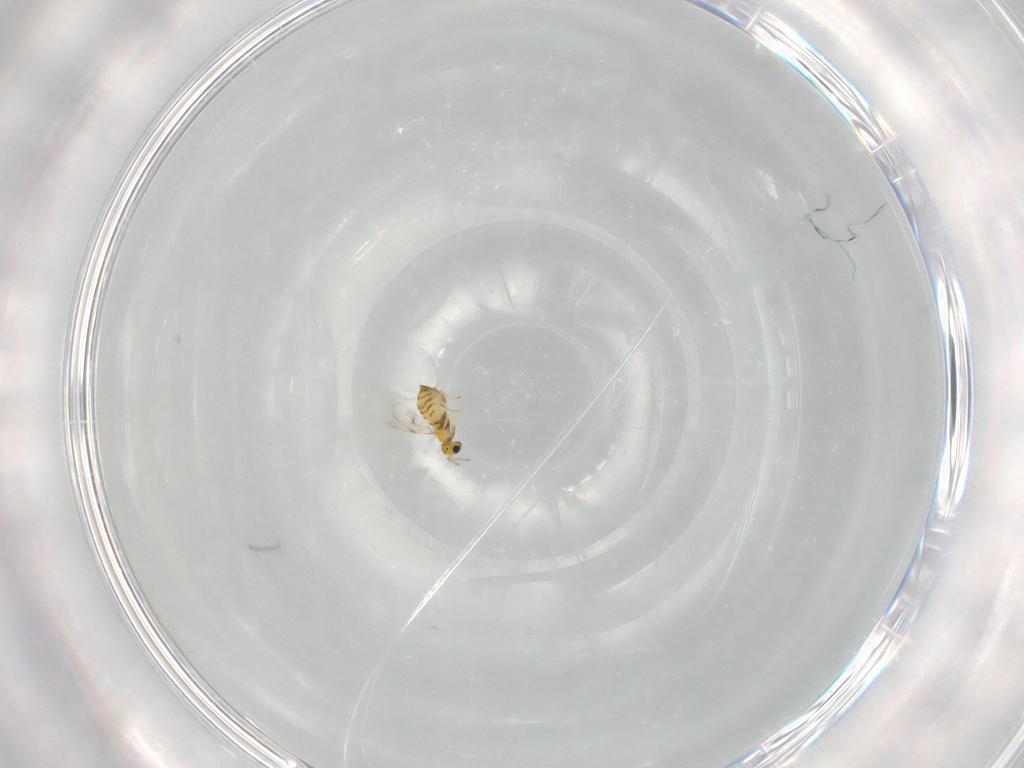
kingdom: Animalia
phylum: Arthropoda
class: Insecta
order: Hymenoptera
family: Trichogrammatidae
